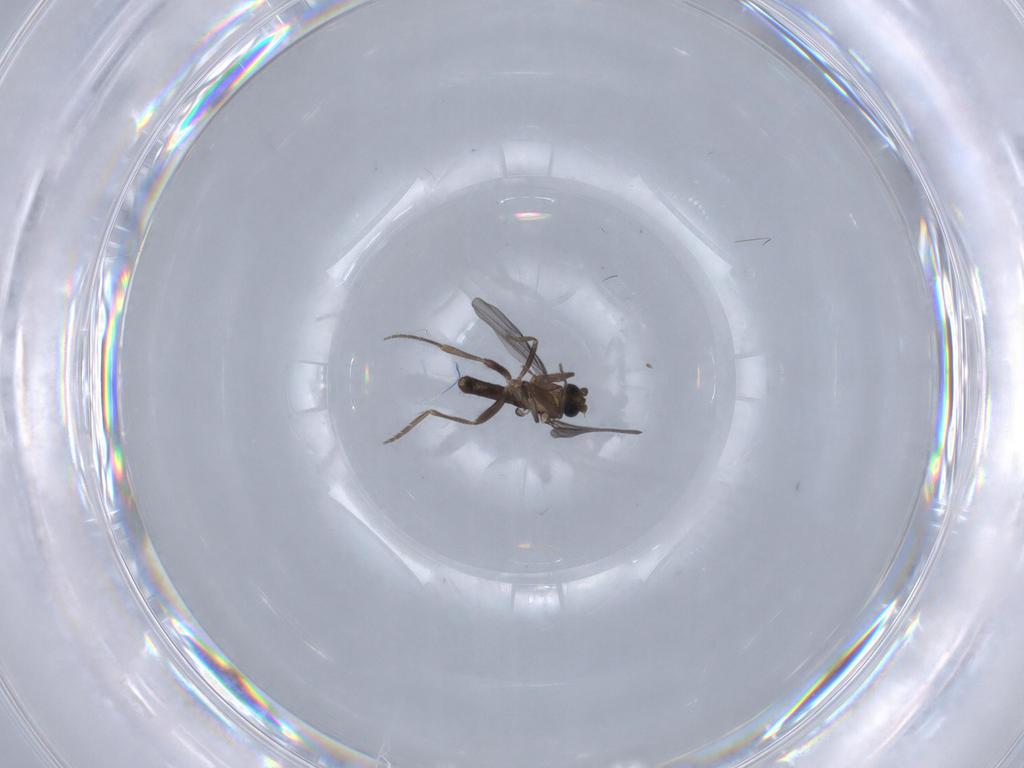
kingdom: Animalia
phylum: Arthropoda
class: Insecta
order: Diptera
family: Phoridae
